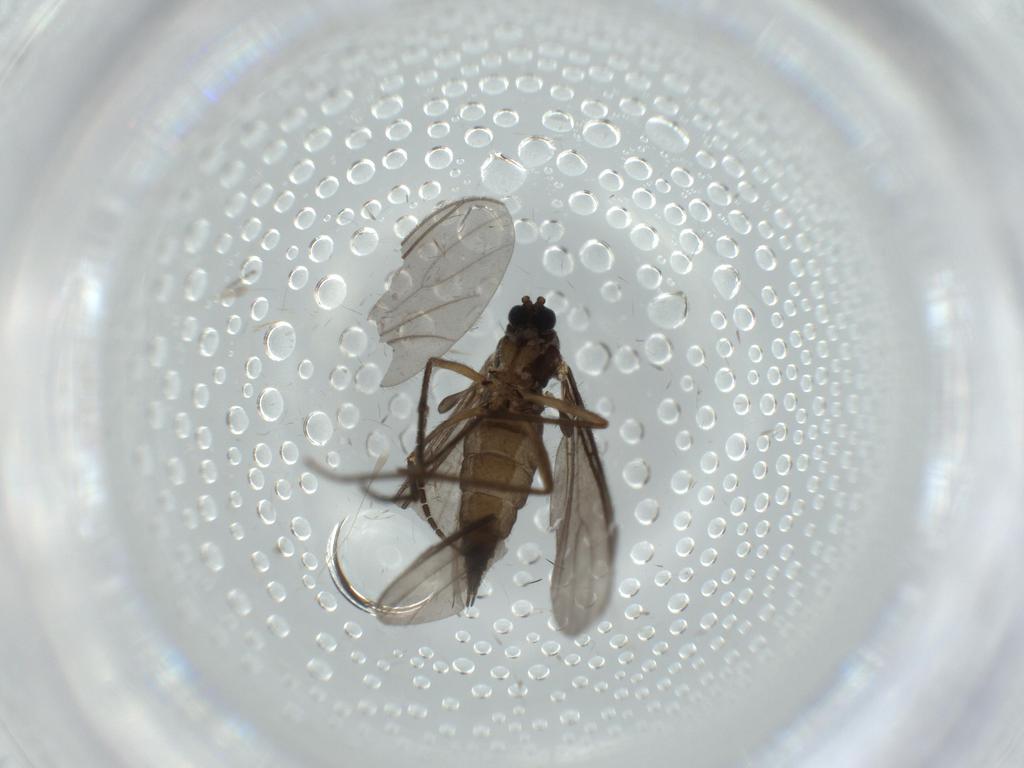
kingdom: Animalia
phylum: Arthropoda
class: Insecta
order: Diptera
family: Sciaridae
